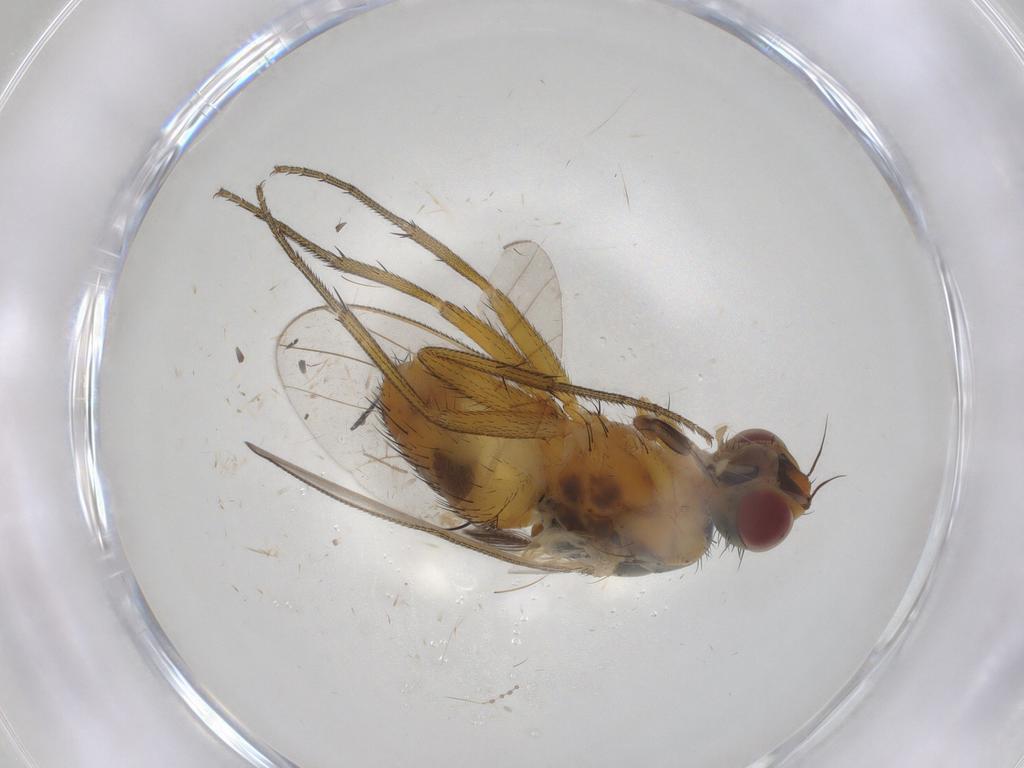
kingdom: Animalia
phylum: Arthropoda
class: Insecta
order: Diptera
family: Muscidae
